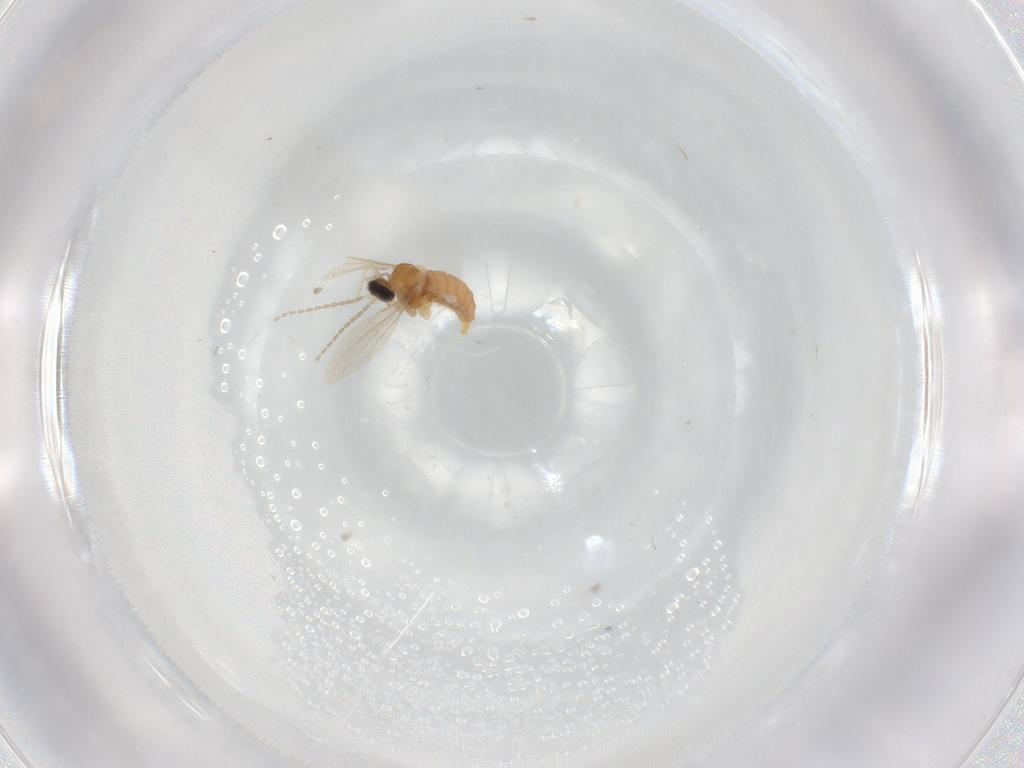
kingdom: Animalia
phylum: Arthropoda
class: Insecta
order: Diptera
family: Cecidomyiidae
